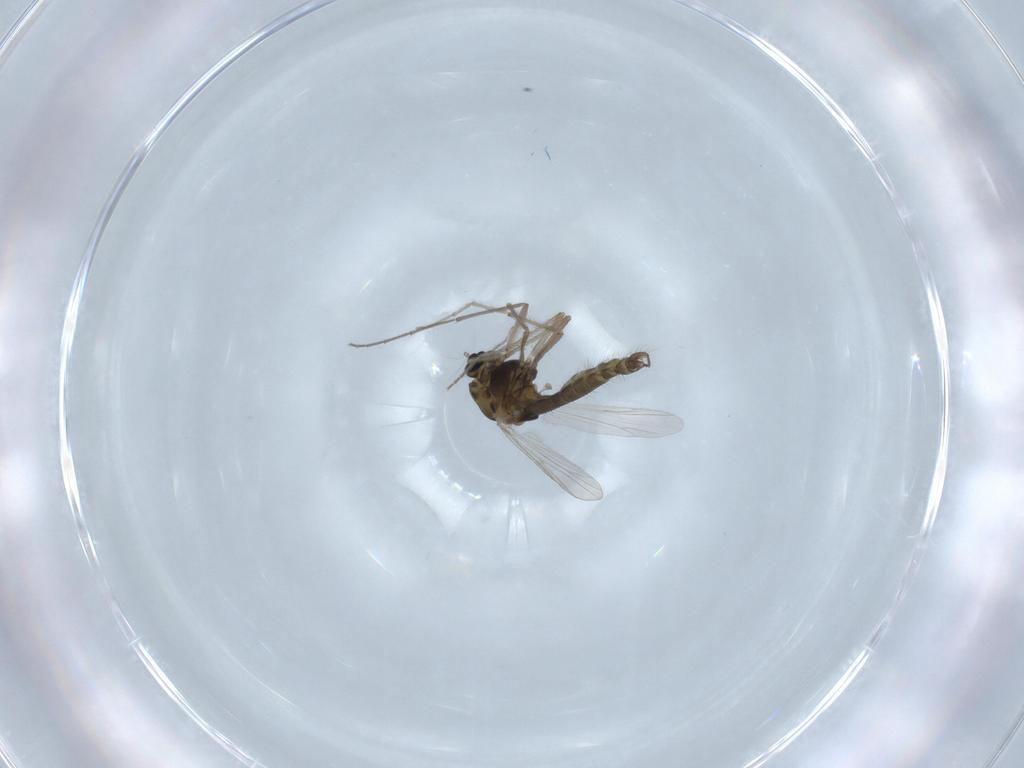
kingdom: Animalia
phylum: Arthropoda
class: Insecta
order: Diptera
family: Chironomidae
